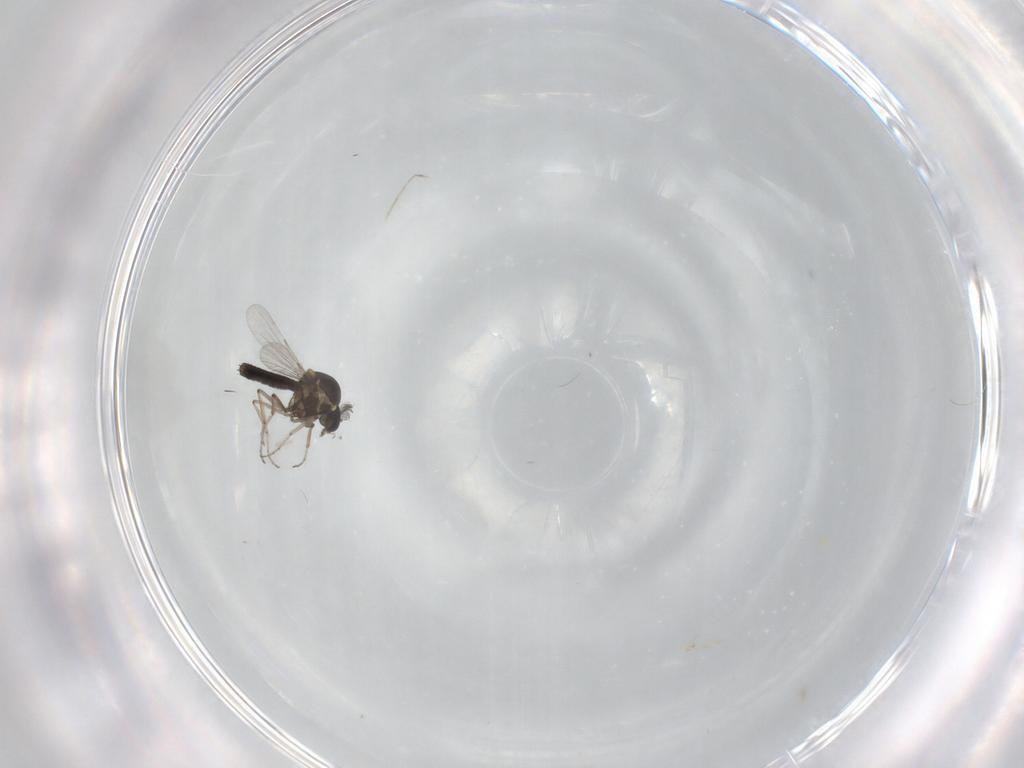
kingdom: Animalia
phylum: Arthropoda
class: Insecta
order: Diptera
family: Ceratopogonidae
